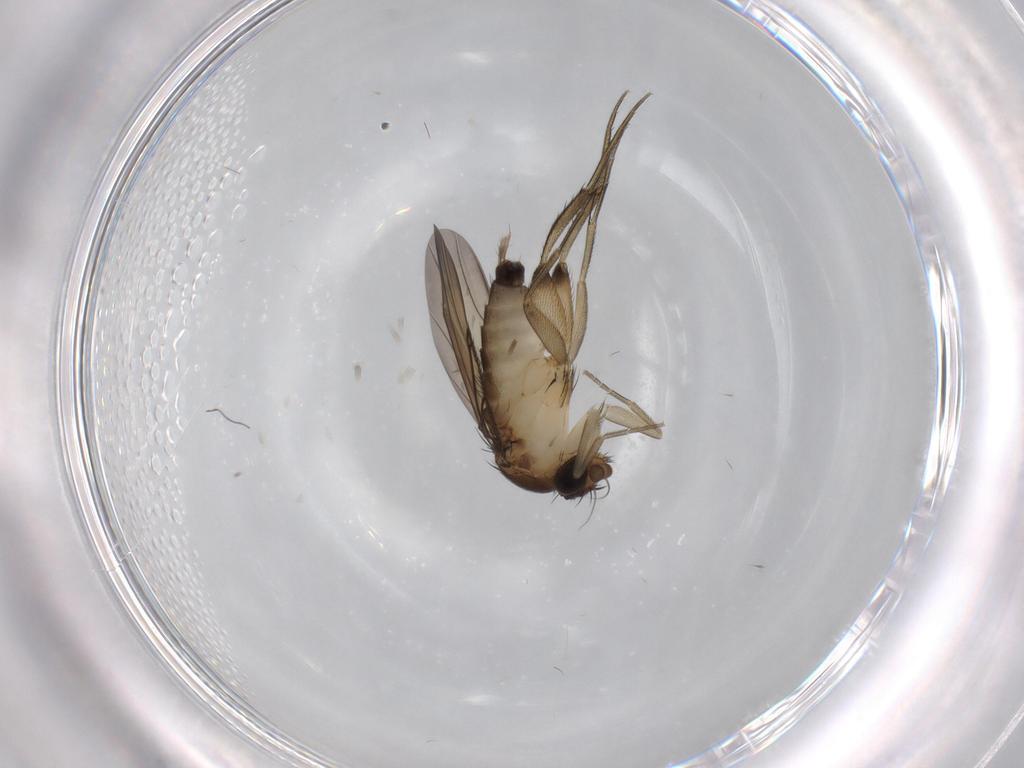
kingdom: Animalia
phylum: Arthropoda
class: Insecta
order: Diptera
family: Phoridae
